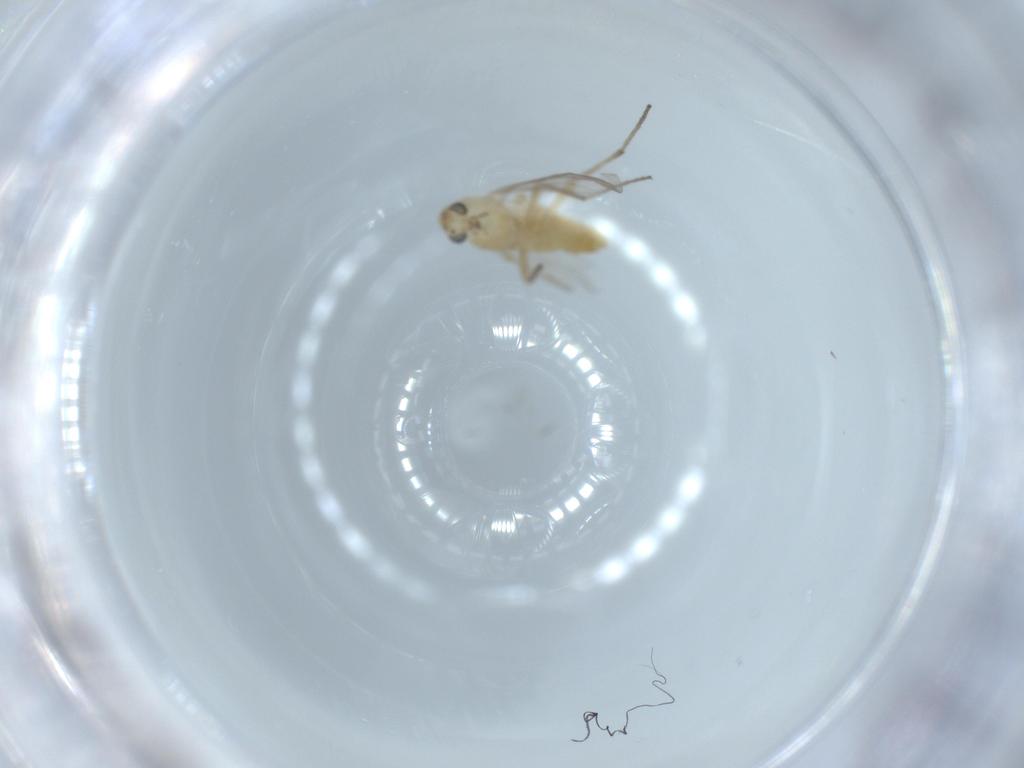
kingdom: Animalia
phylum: Arthropoda
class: Insecta
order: Diptera
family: Chironomidae
